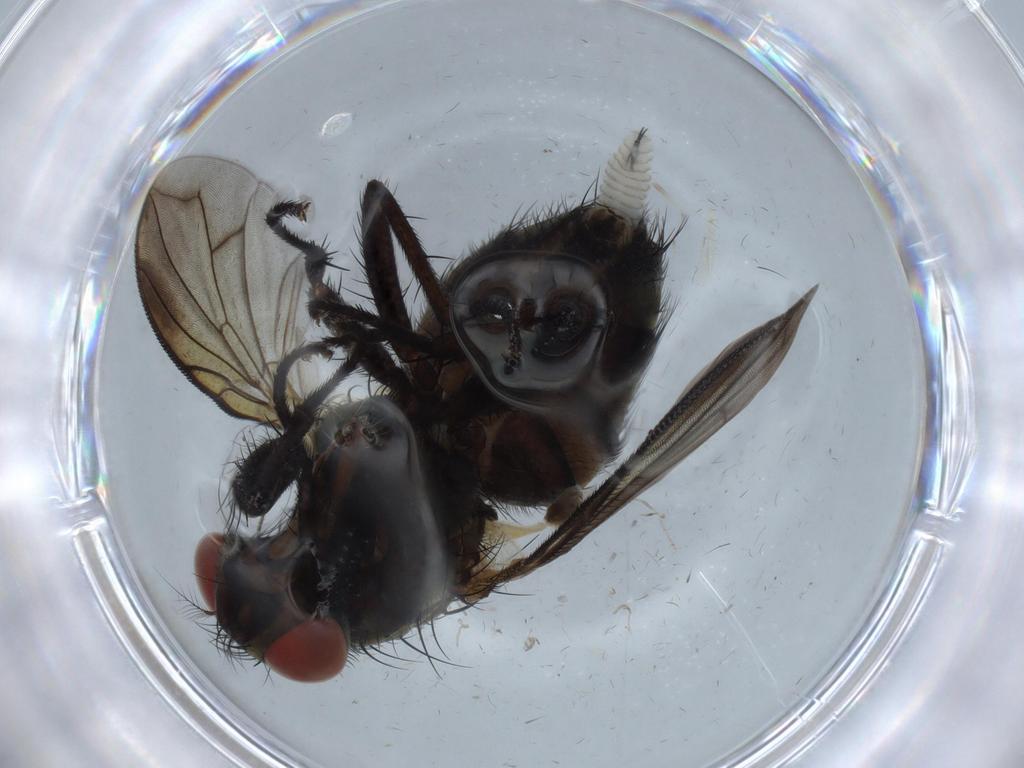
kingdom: Animalia
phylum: Arthropoda
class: Insecta
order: Diptera
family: Sarcophagidae
